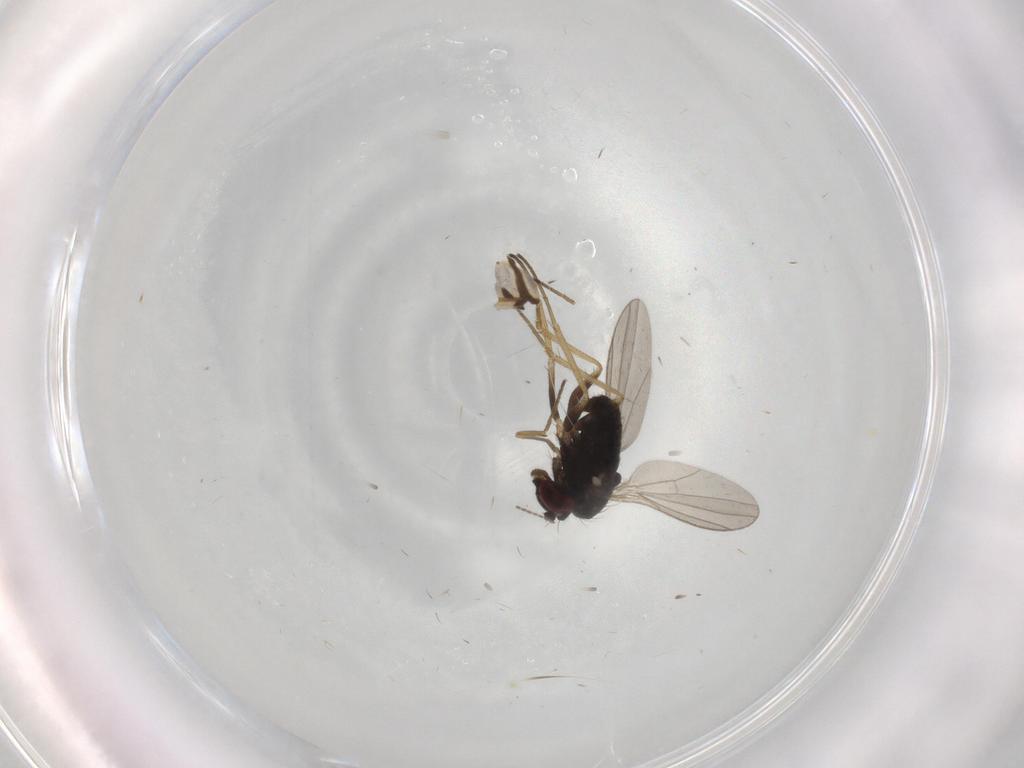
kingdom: Animalia
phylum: Arthropoda
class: Insecta
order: Diptera
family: Dolichopodidae
